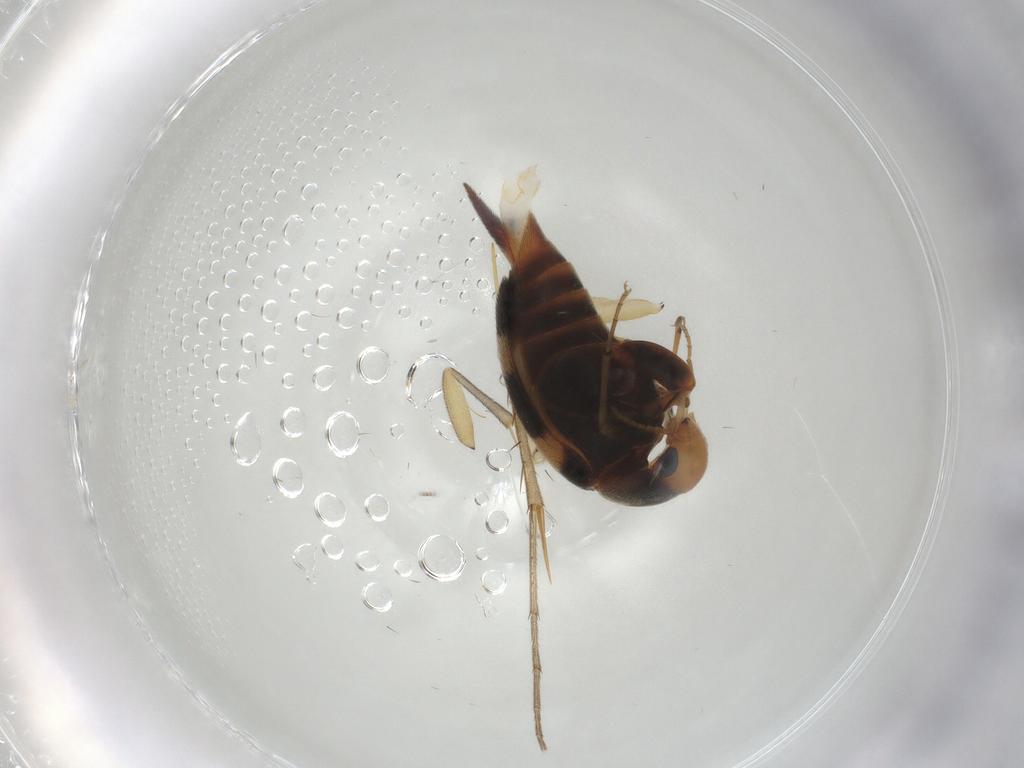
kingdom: Animalia
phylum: Arthropoda
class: Insecta
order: Coleoptera
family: Mordellidae
